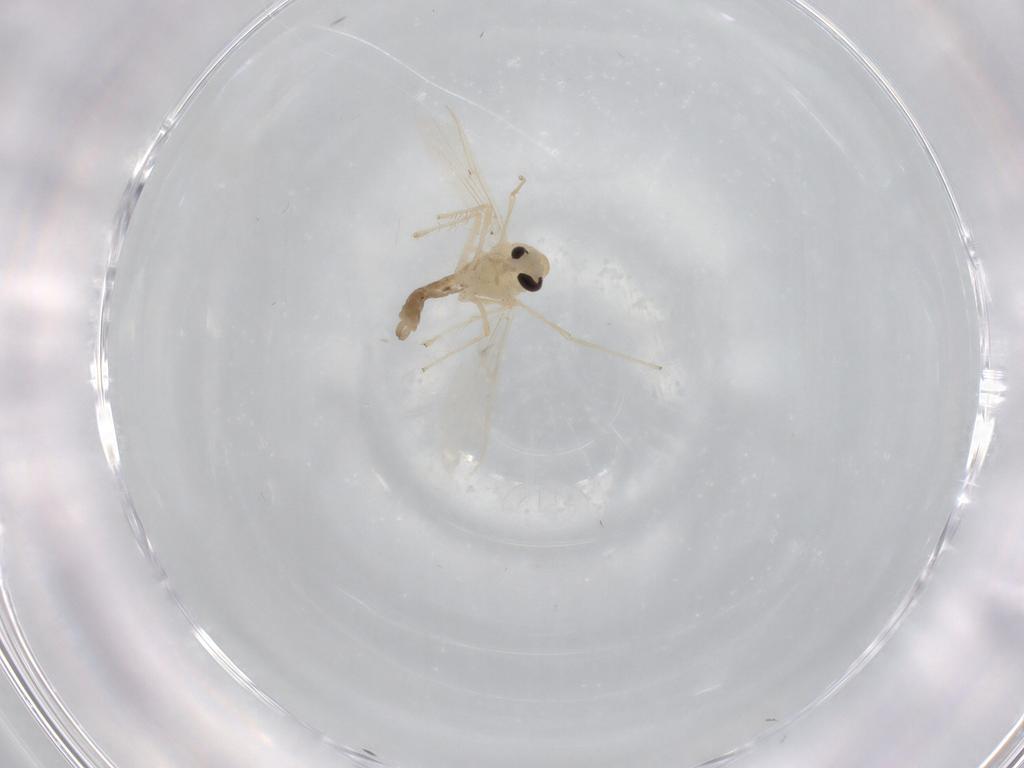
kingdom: Animalia
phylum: Arthropoda
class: Insecta
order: Diptera
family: Chironomidae
